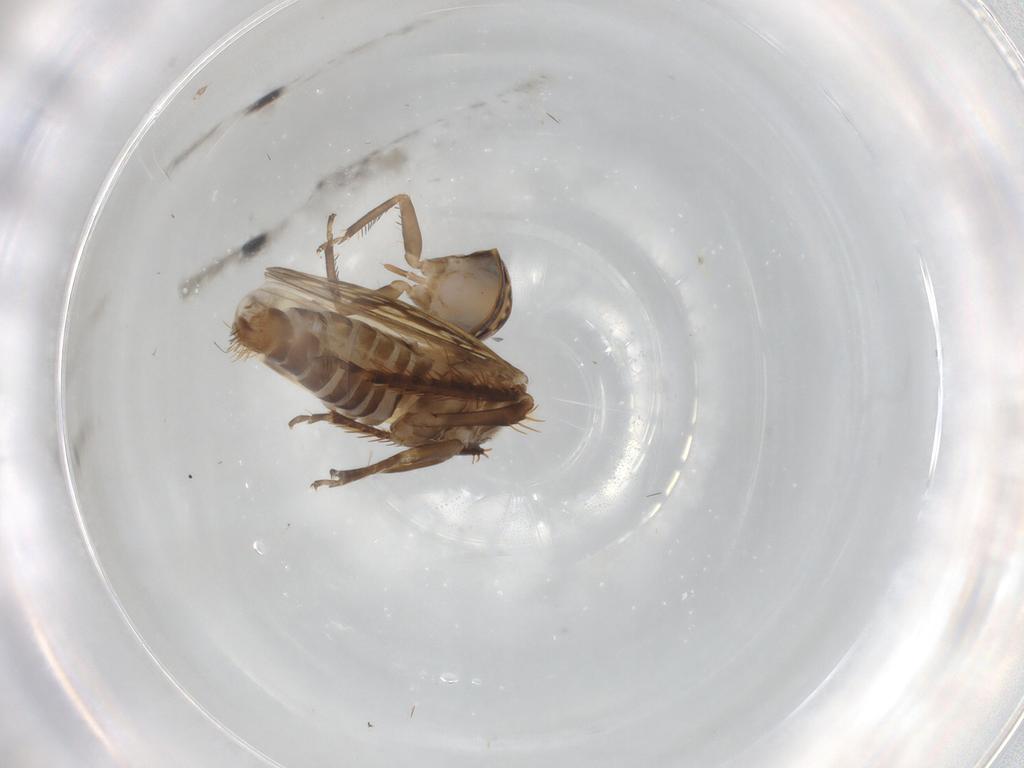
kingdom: Animalia
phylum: Arthropoda
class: Insecta
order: Hemiptera
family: Cicadellidae
